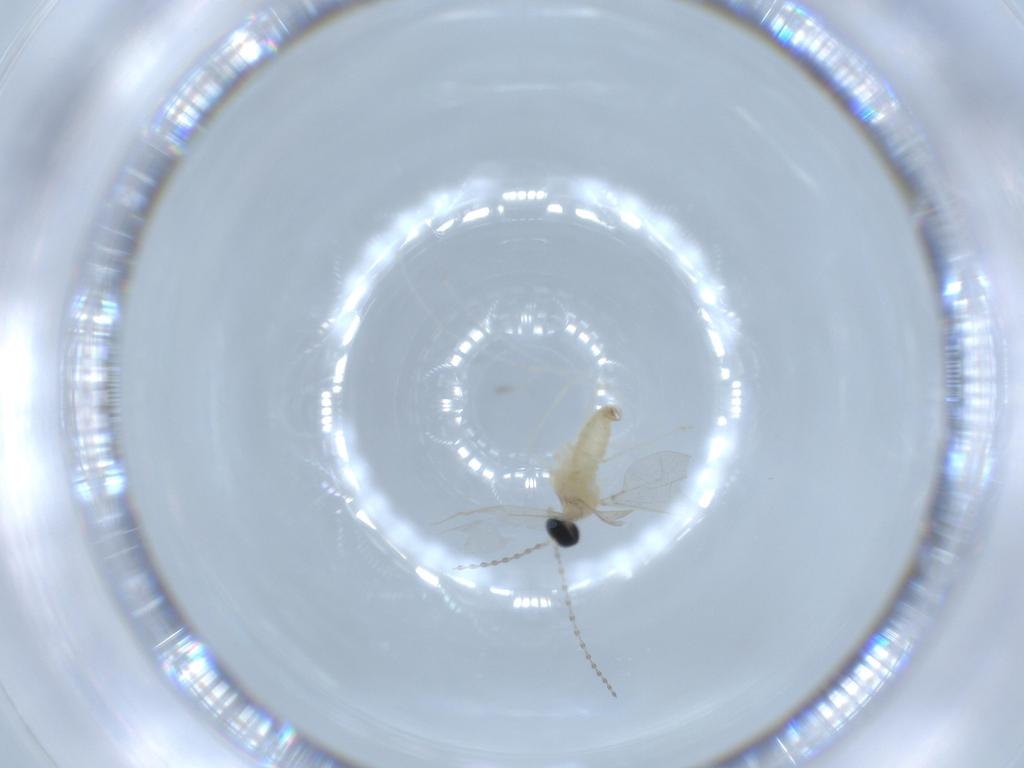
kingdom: Animalia
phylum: Arthropoda
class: Insecta
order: Diptera
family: Cecidomyiidae
